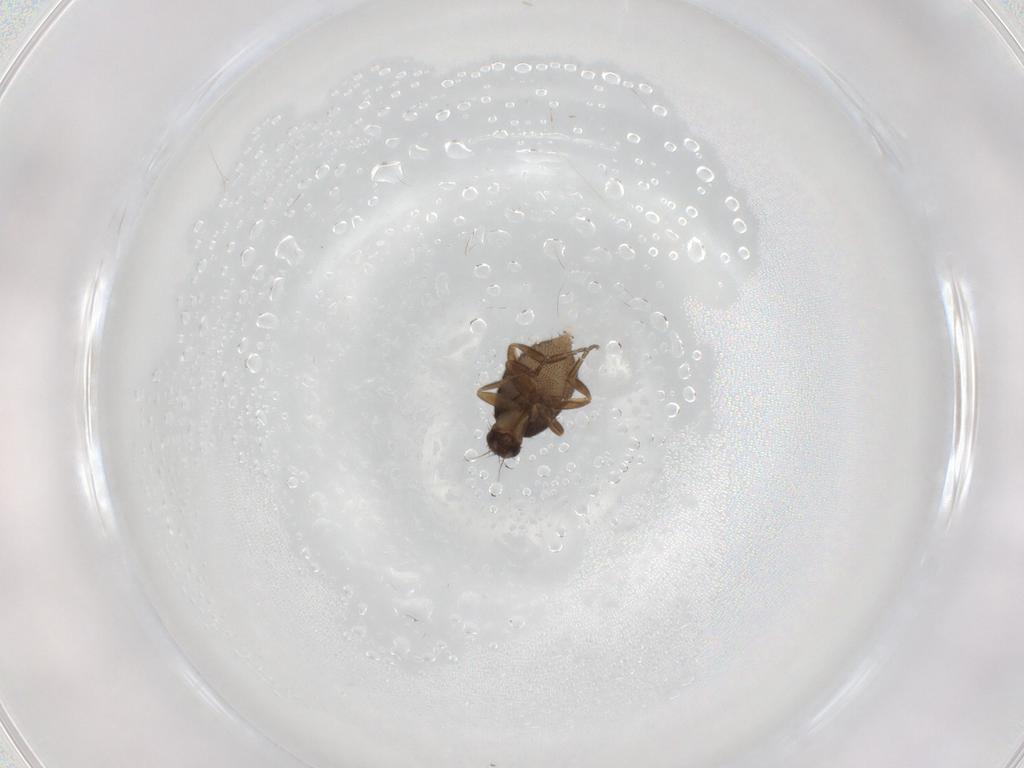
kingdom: Animalia
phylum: Arthropoda
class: Insecta
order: Diptera
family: Phoridae
